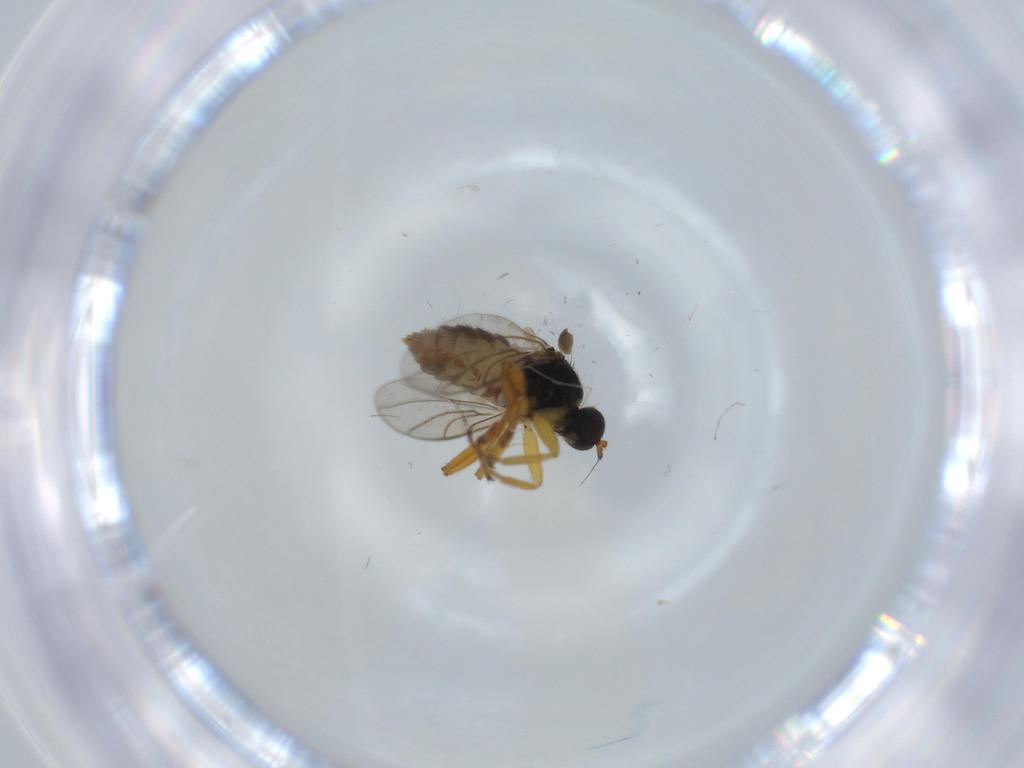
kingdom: Animalia
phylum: Arthropoda
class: Insecta
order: Diptera
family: Hybotidae
